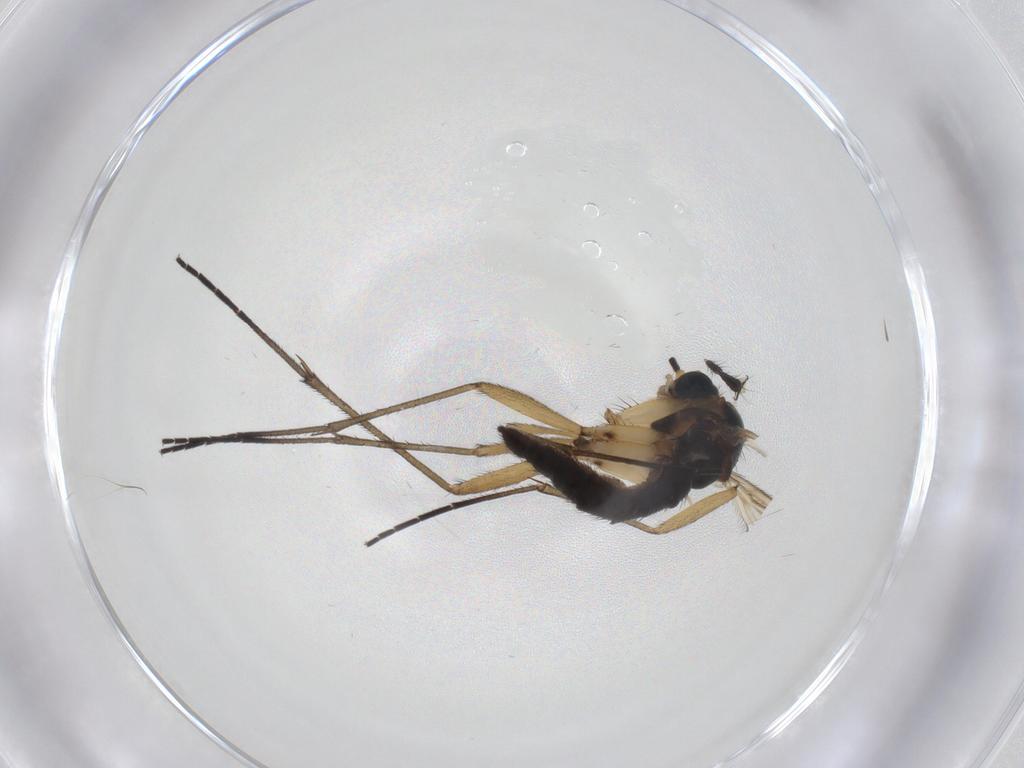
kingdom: Animalia
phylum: Arthropoda
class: Insecta
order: Diptera
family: Sciaridae
